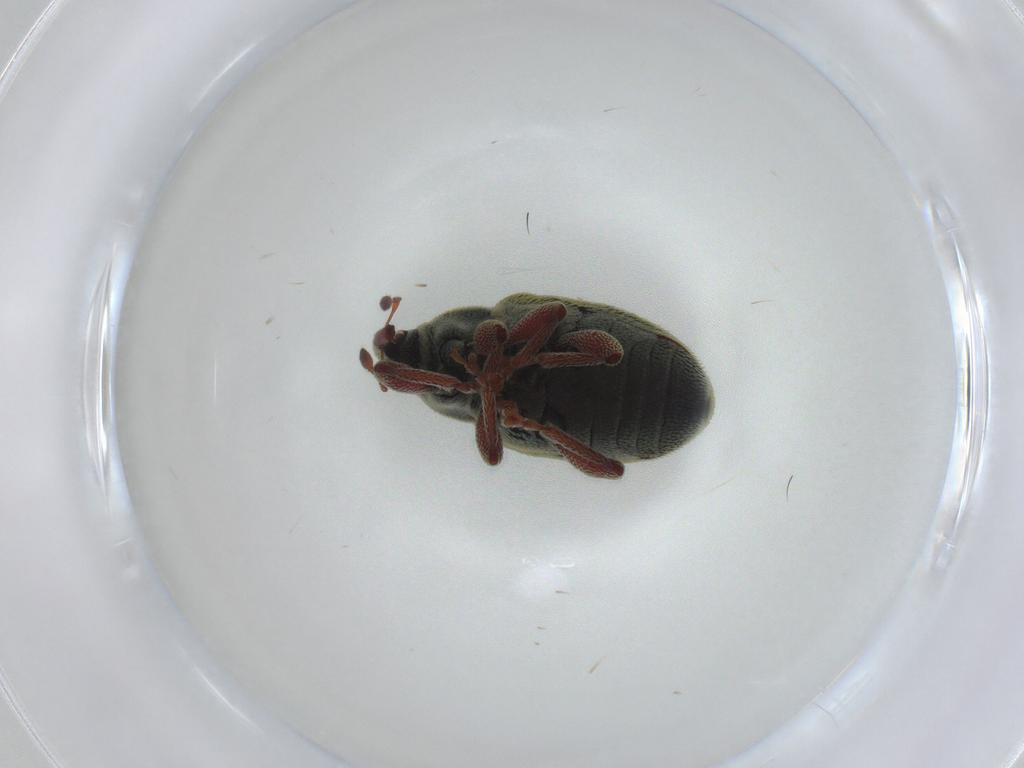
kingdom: Animalia
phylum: Arthropoda
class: Insecta
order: Coleoptera
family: Curculionidae
